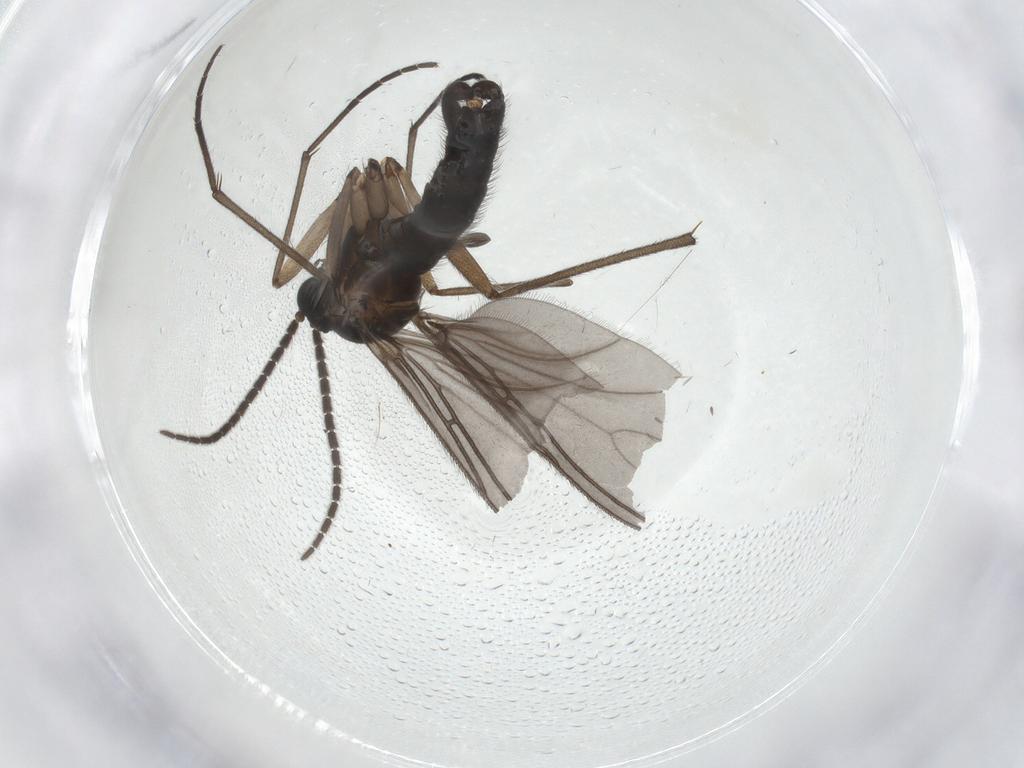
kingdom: Animalia
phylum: Arthropoda
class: Insecta
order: Diptera
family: Sciaridae
